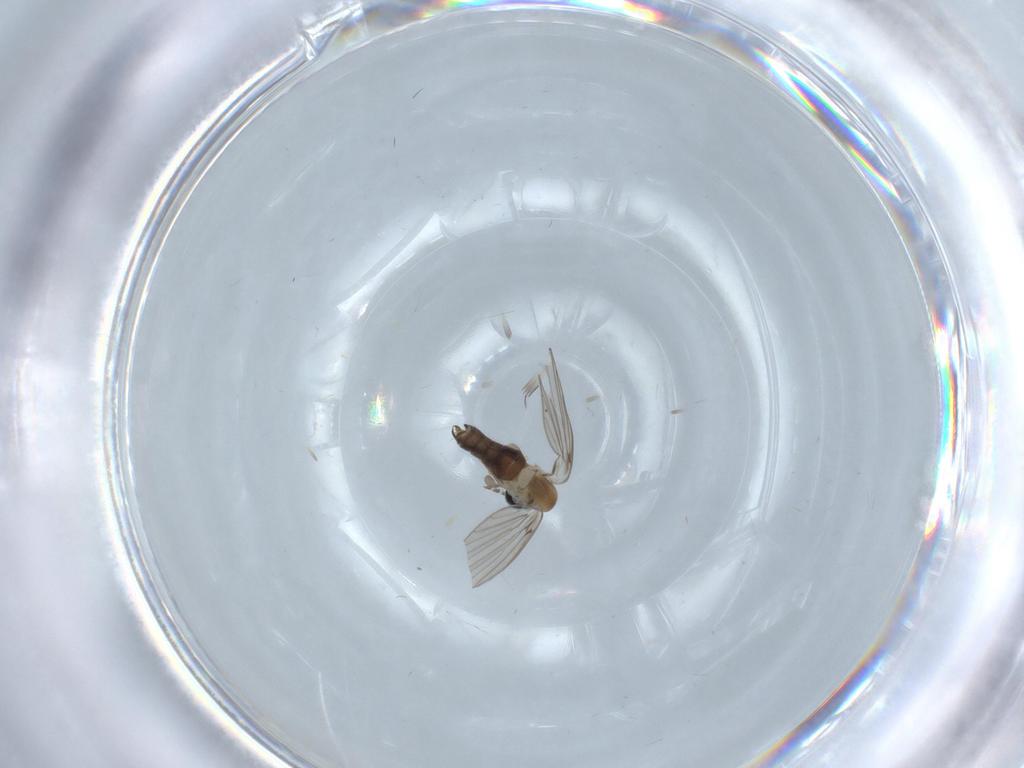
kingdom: Animalia
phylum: Arthropoda
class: Insecta
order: Diptera
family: Psychodidae
